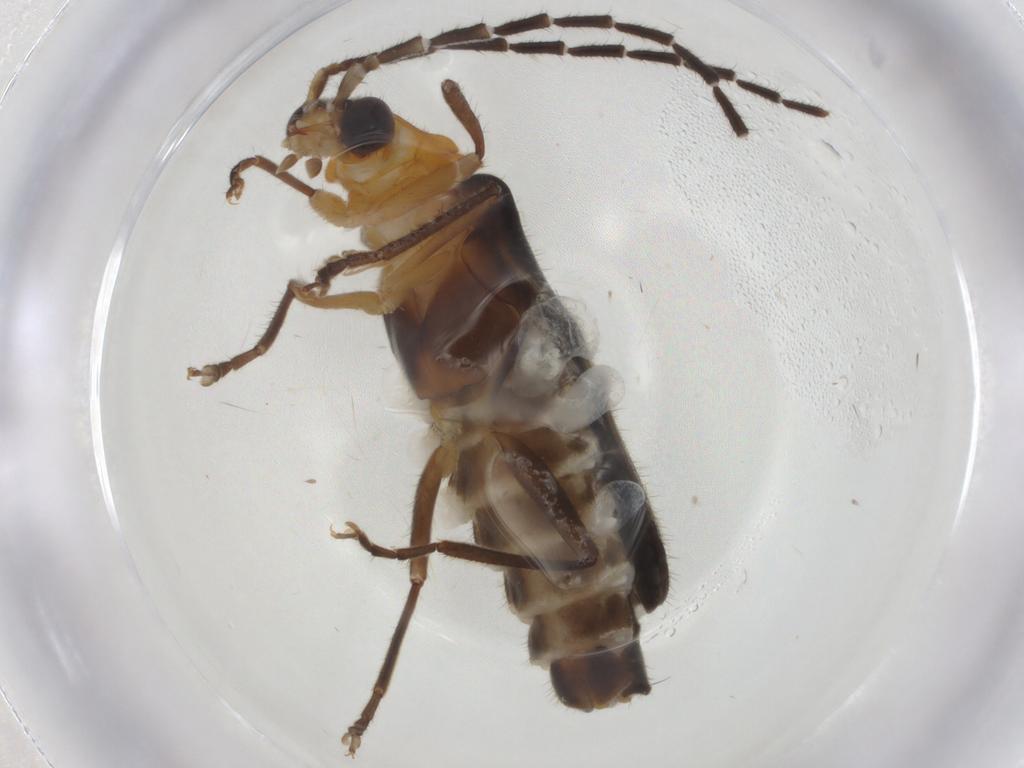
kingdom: Animalia
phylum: Arthropoda
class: Insecta
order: Coleoptera
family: Cantharidae
